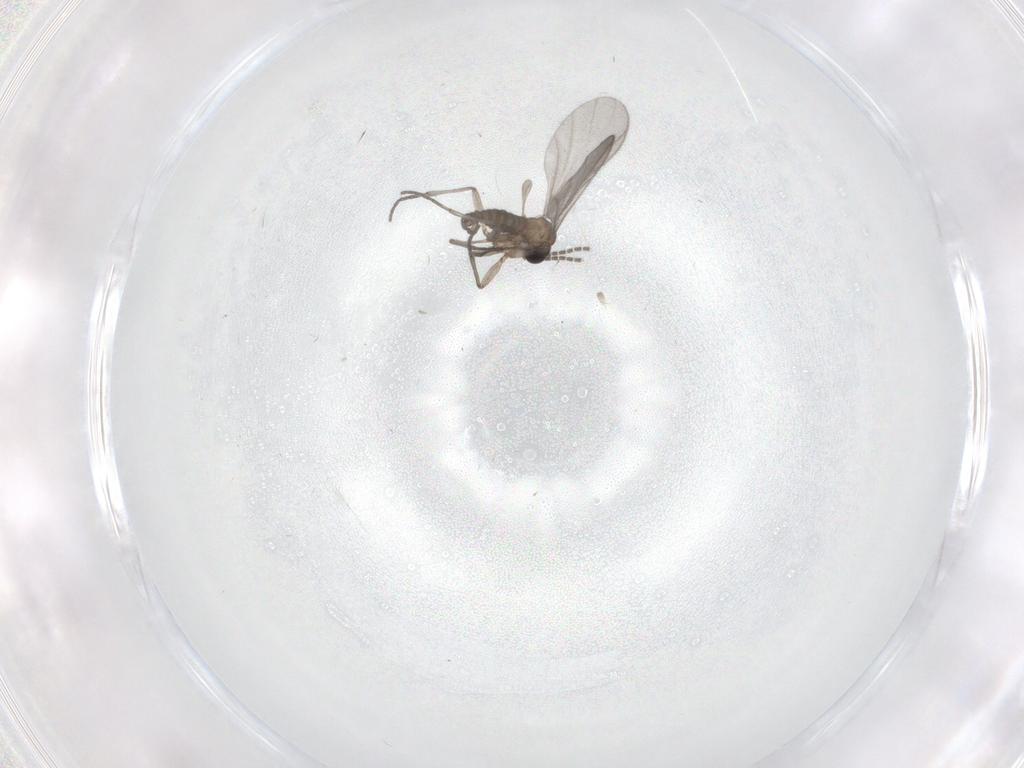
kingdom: Animalia
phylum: Arthropoda
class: Insecta
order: Diptera
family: Sciaridae
